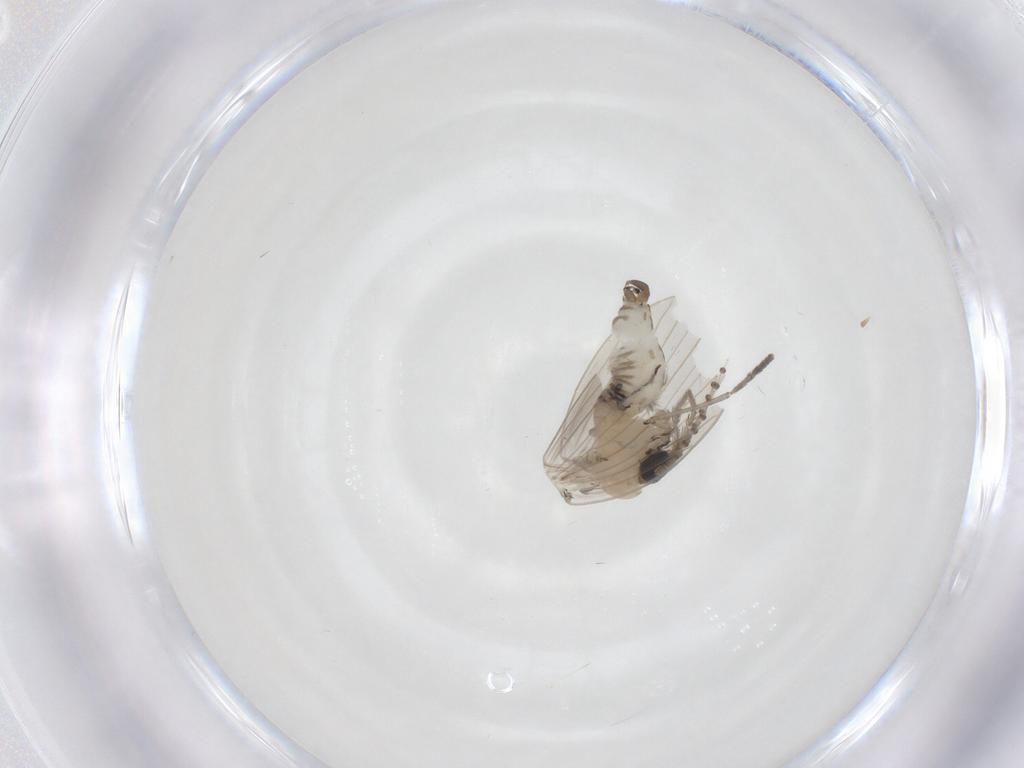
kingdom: Animalia
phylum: Arthropoda
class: Insecta
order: Diptera
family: Psychodidae
